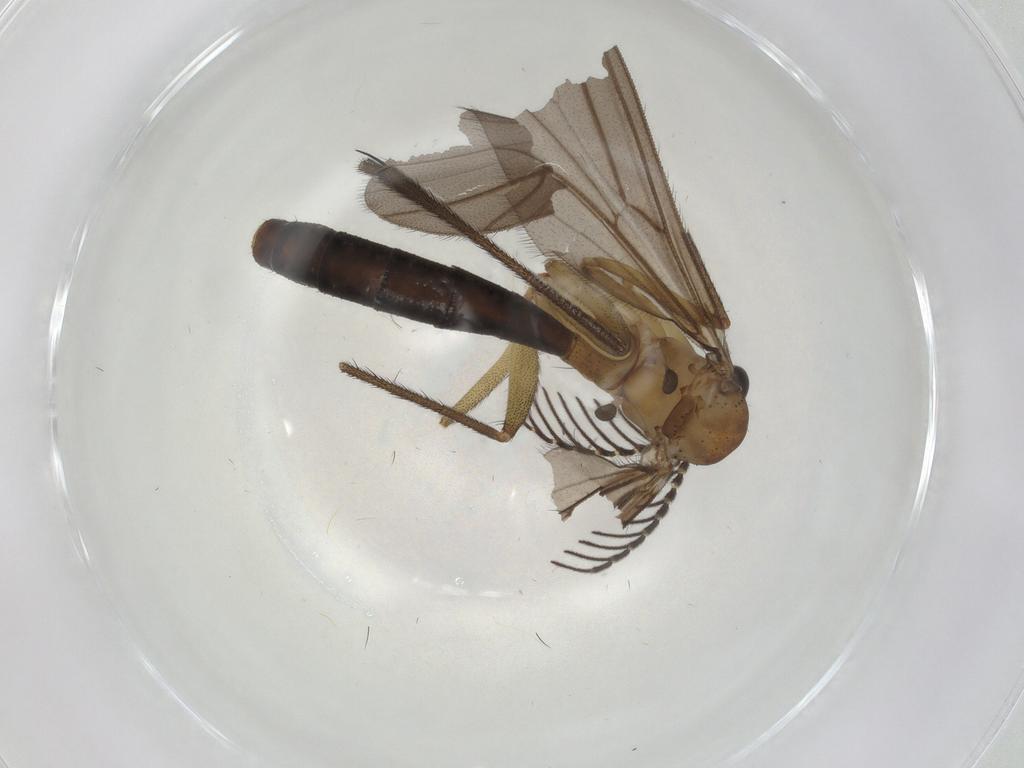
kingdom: Animalia
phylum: Arthropoda
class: Insecta
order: Diptera
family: Ditomyiidae
